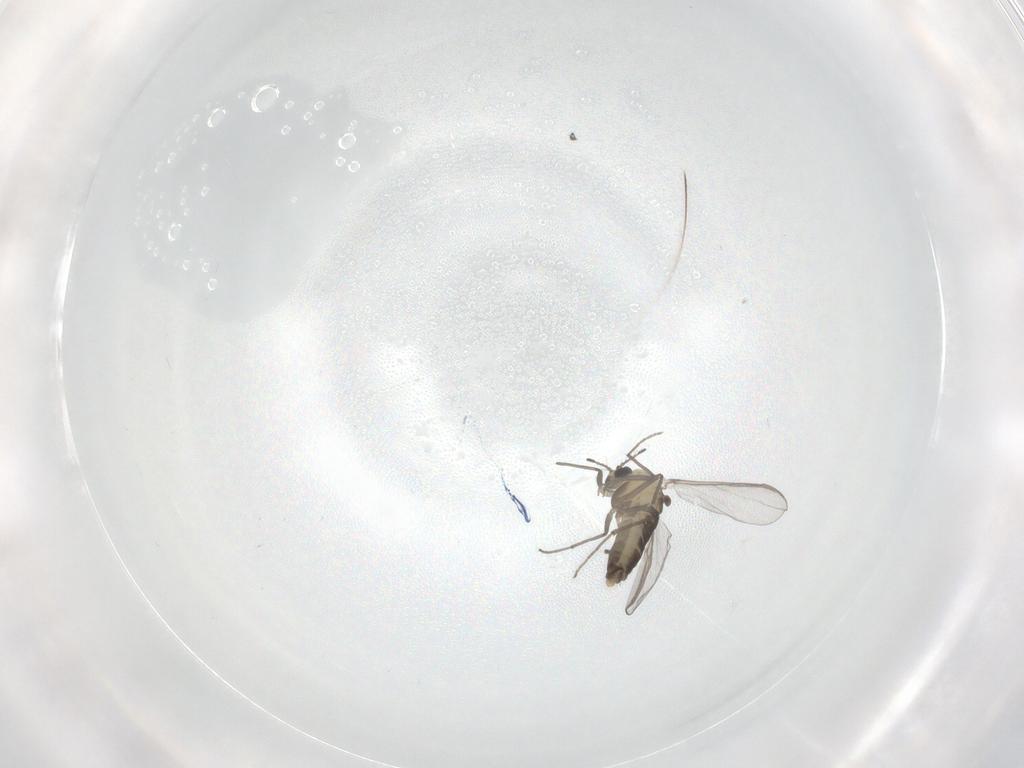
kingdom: Animalia
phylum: Arthropoda
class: Insecta
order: Diptera
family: Chironomidae
